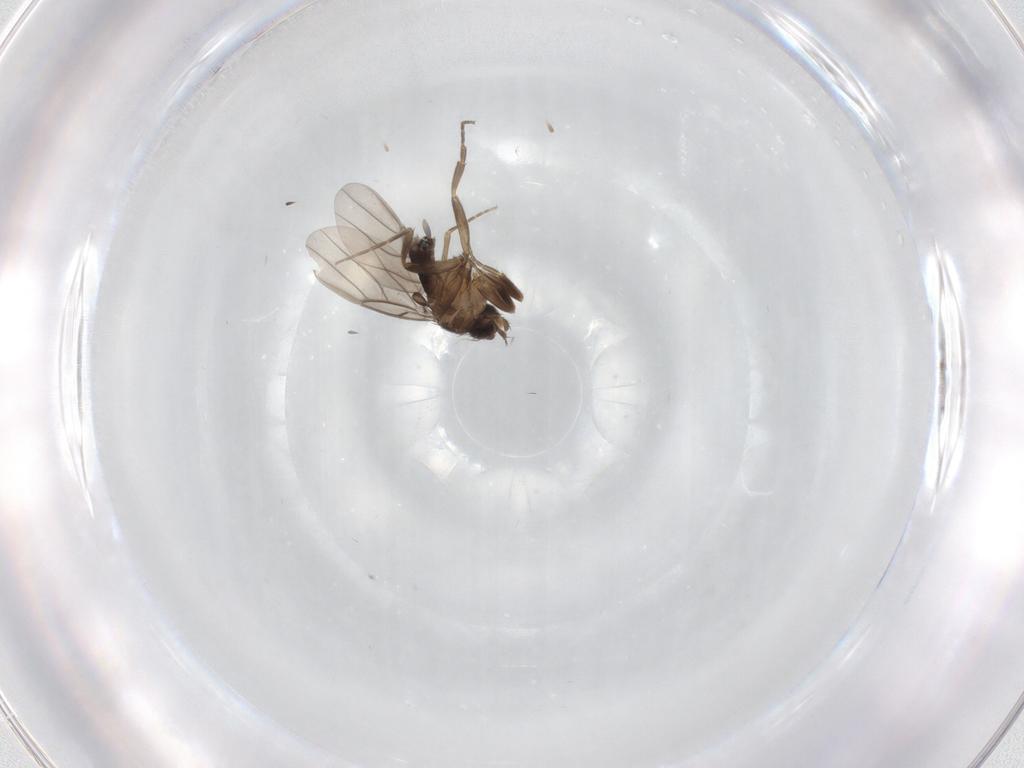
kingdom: Animalia
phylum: Arthropoda
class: Insecta
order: Diptera
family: Phoridae
